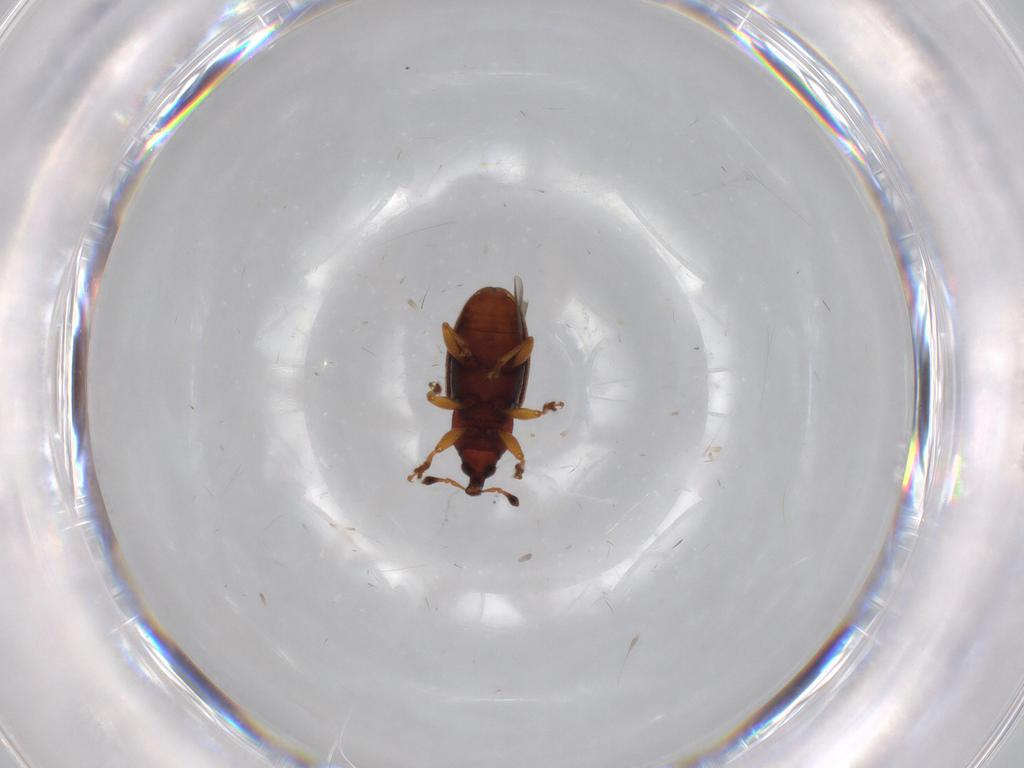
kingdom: Animalia
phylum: Arthropoda
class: Insecta
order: Coleoptera
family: Curculionidae
